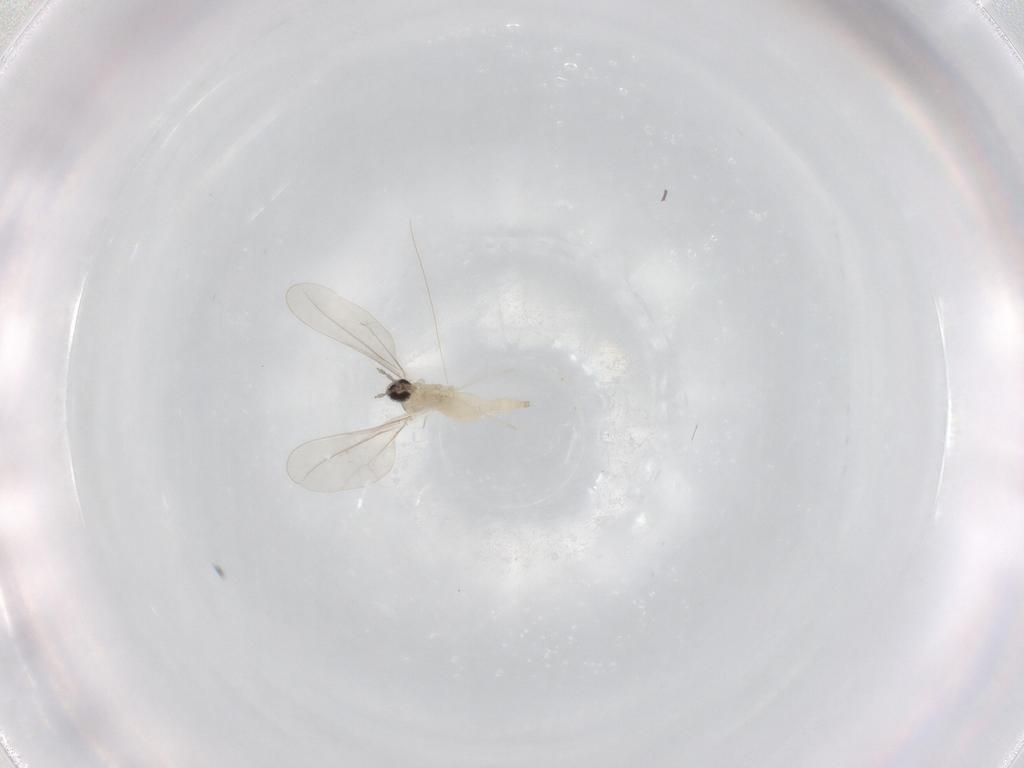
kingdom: Animalia
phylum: Arthropoda
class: Insecta
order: Diptera
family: Cecidomyiidae
